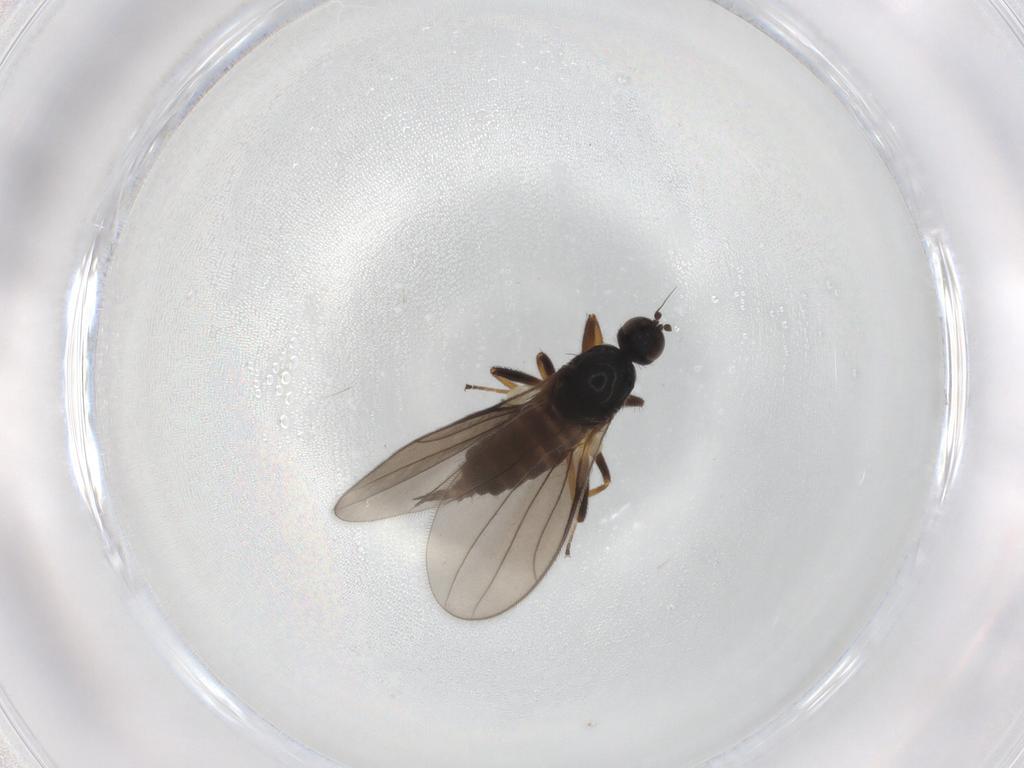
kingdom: Animalia
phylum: Arthropoda
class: Insecta
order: Diptera
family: Hybotidae
